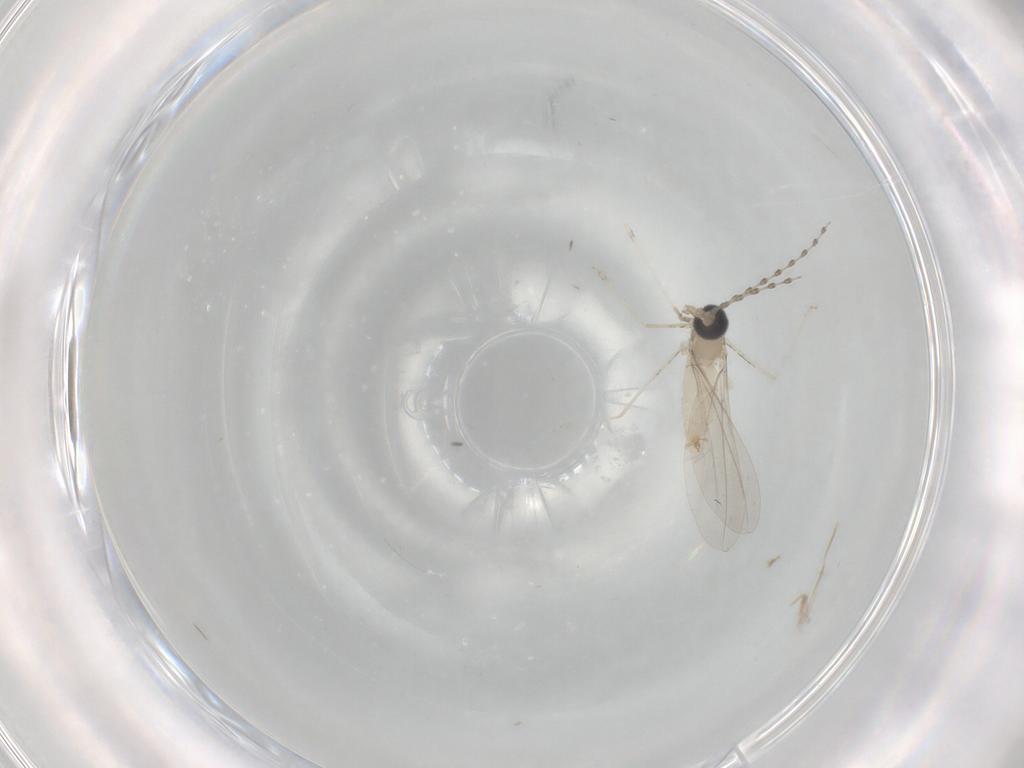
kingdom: Animalia
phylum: Arthropoda
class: Insecta
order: Diptera
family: Cecidomyiidae
